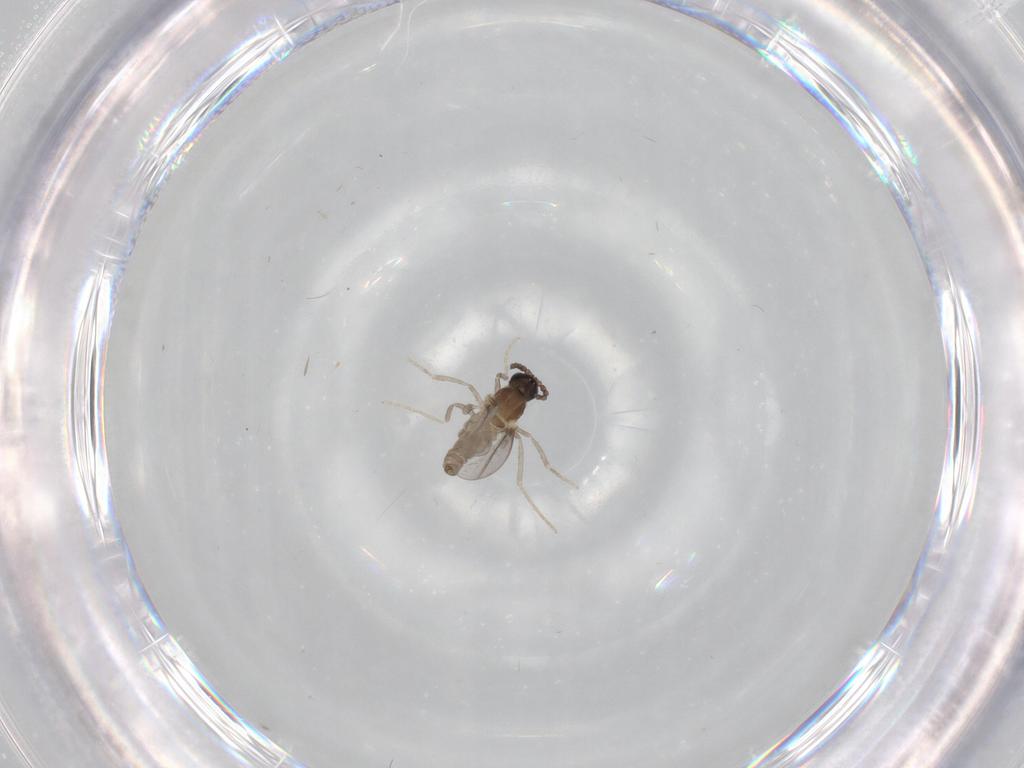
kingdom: Animalia
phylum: Arthropoda
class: Insecta
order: Diptera
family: Cecidomyiidae
